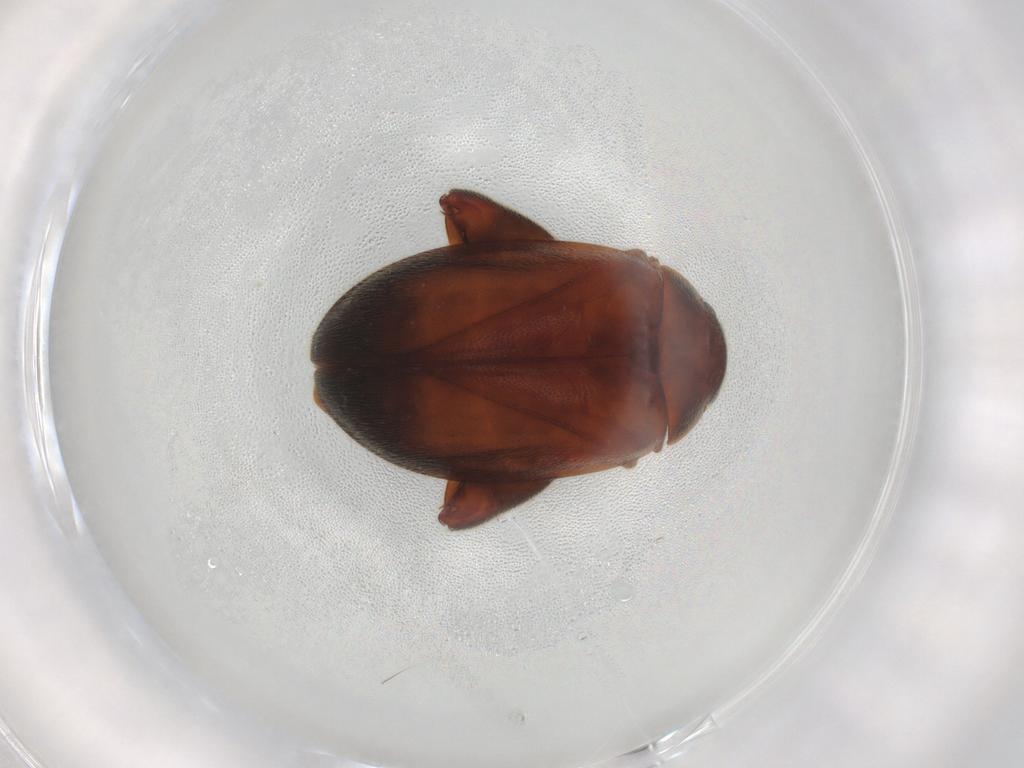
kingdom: Animalia
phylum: Arthropoda
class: Insecta
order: Coleoptera
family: Scirtidae
